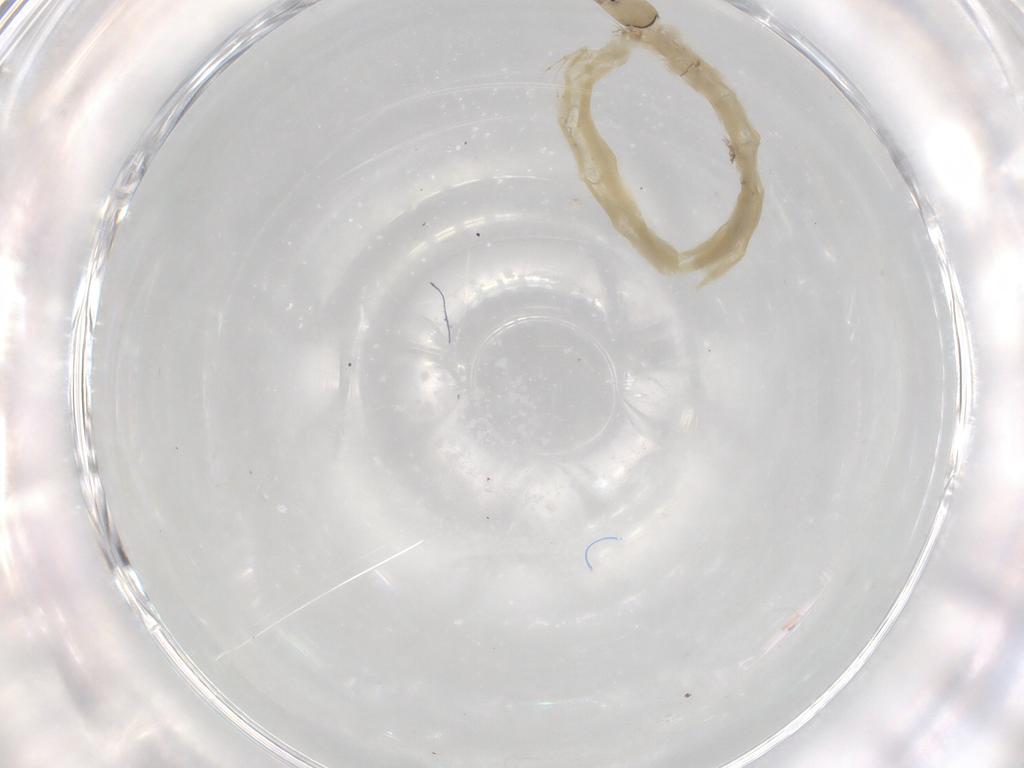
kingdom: Animalia
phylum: Arthropoda
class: Insecta
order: Diptera
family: Chironomidae
